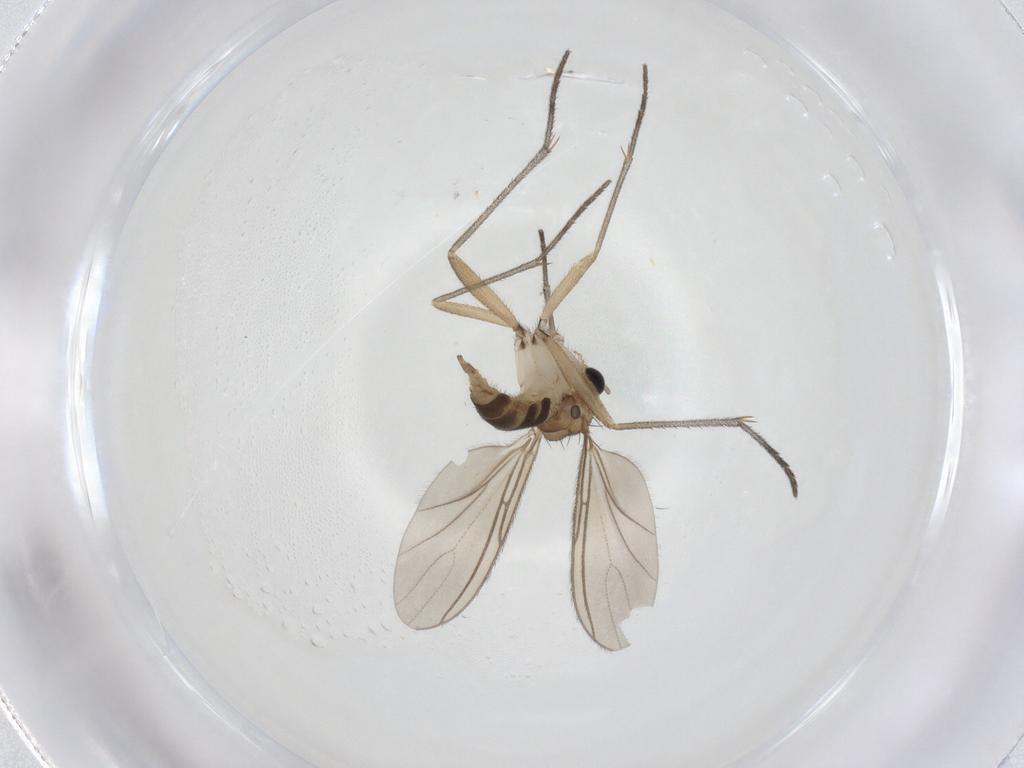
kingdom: Animalia
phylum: Arthropoda
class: Insecta
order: Diptera
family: Sciaridae
